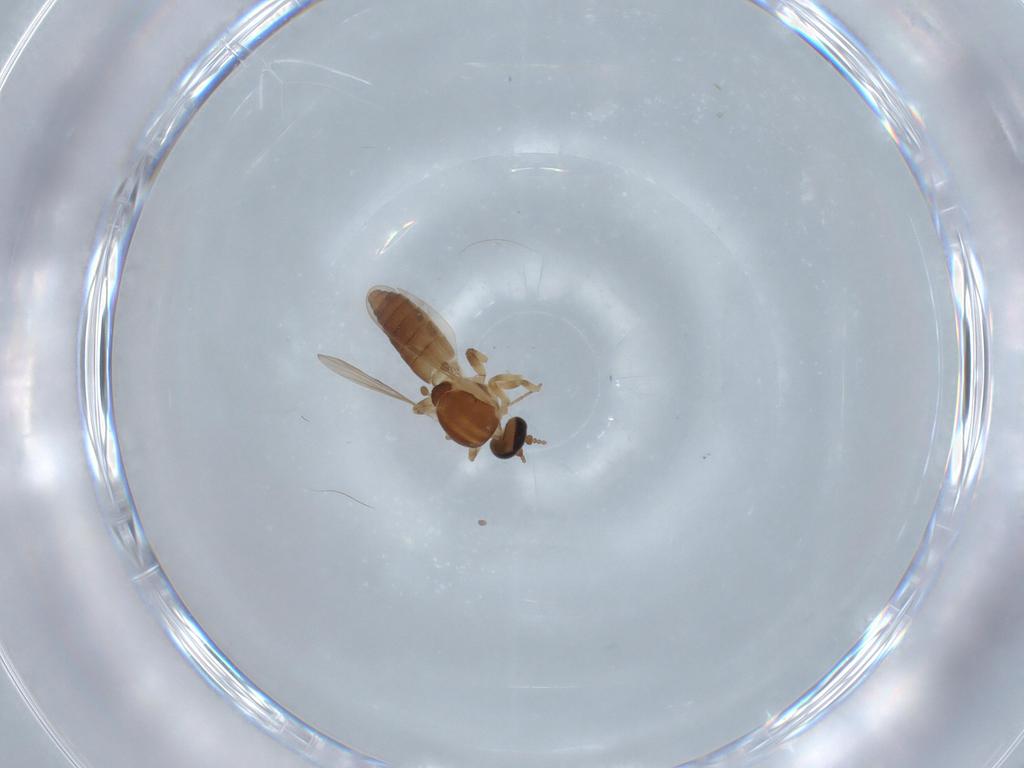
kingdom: Animalia
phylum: Arthropoda
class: Insecta
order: Diptera
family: Ceratopogonidae
